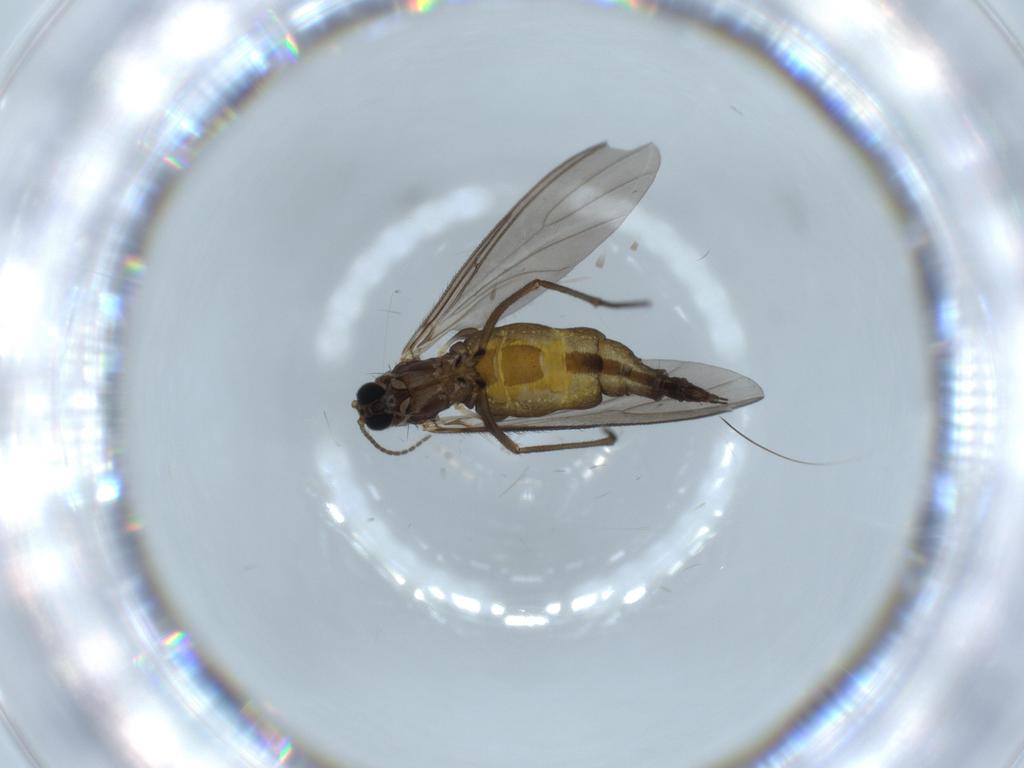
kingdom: Animalia
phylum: Arthropoda
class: Insecta
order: Diptera
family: Sciaridae
